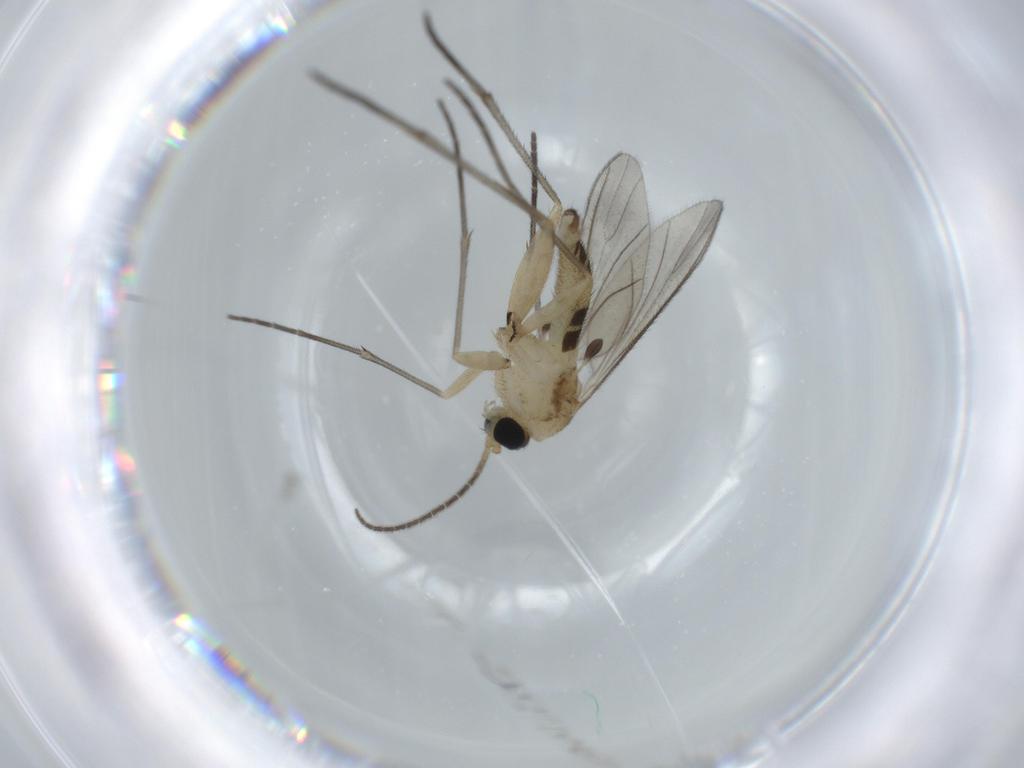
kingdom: Animalia
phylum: Arthropoda
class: Insecta
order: Diptera
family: Sciaridae
